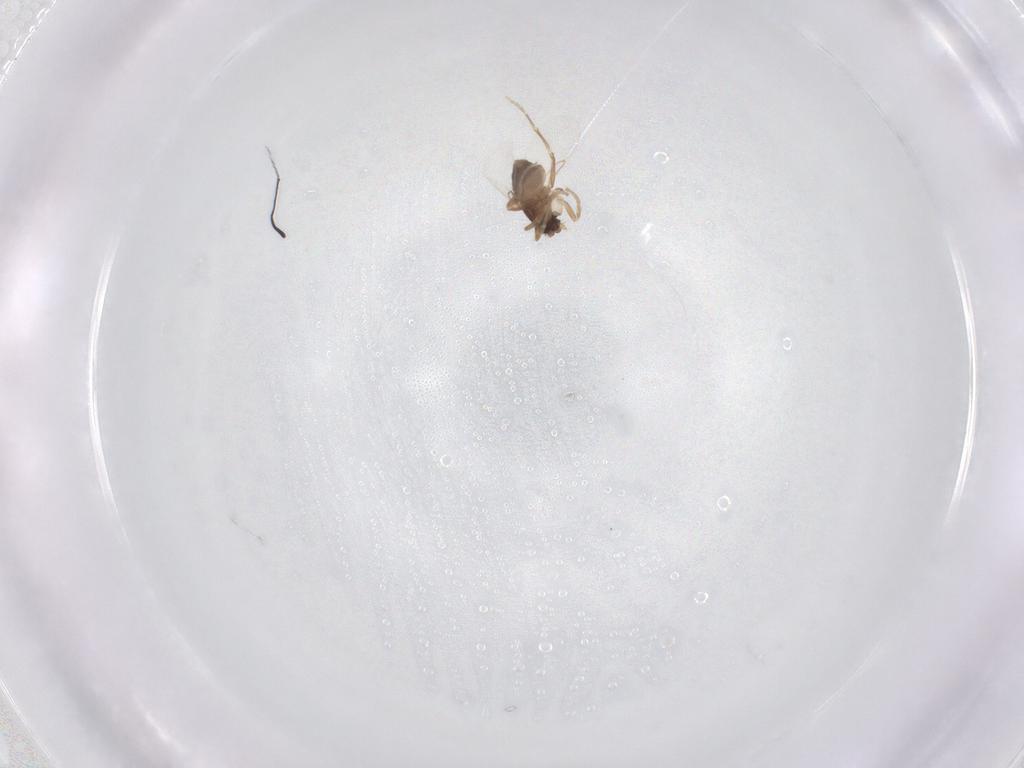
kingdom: Animalia
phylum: Arthropoda
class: Insecta
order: Diptera
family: Phoridae
